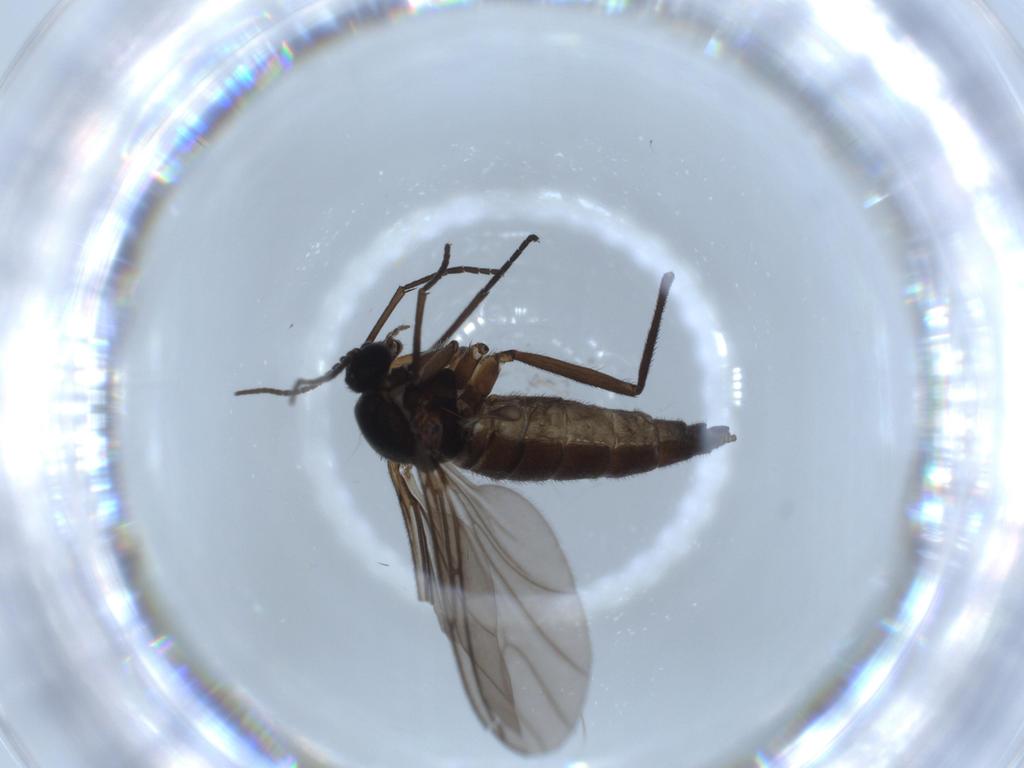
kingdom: Animalia
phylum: Arthropoda
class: Insecta
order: Diptera
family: Sciaridae
